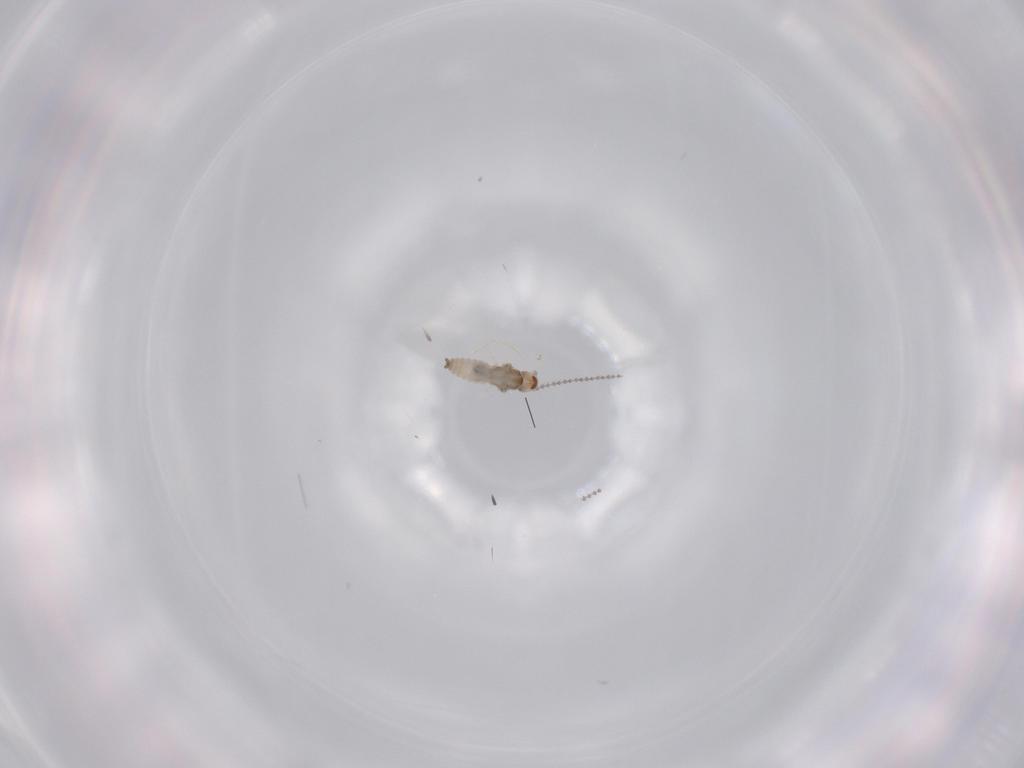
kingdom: Animalia
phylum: Arthropoda
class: Insecta
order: Diptera
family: Cecidomyiidae
